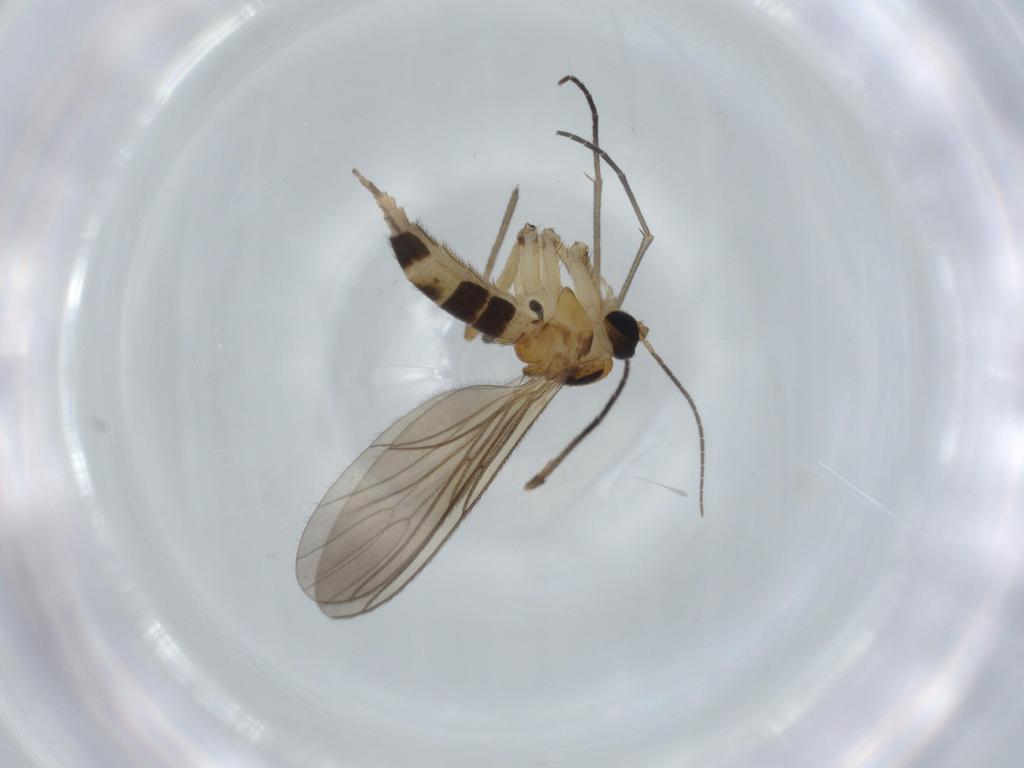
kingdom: Animalia
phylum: Arthropoda
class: Insecta
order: Diptera
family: Sciaridae
